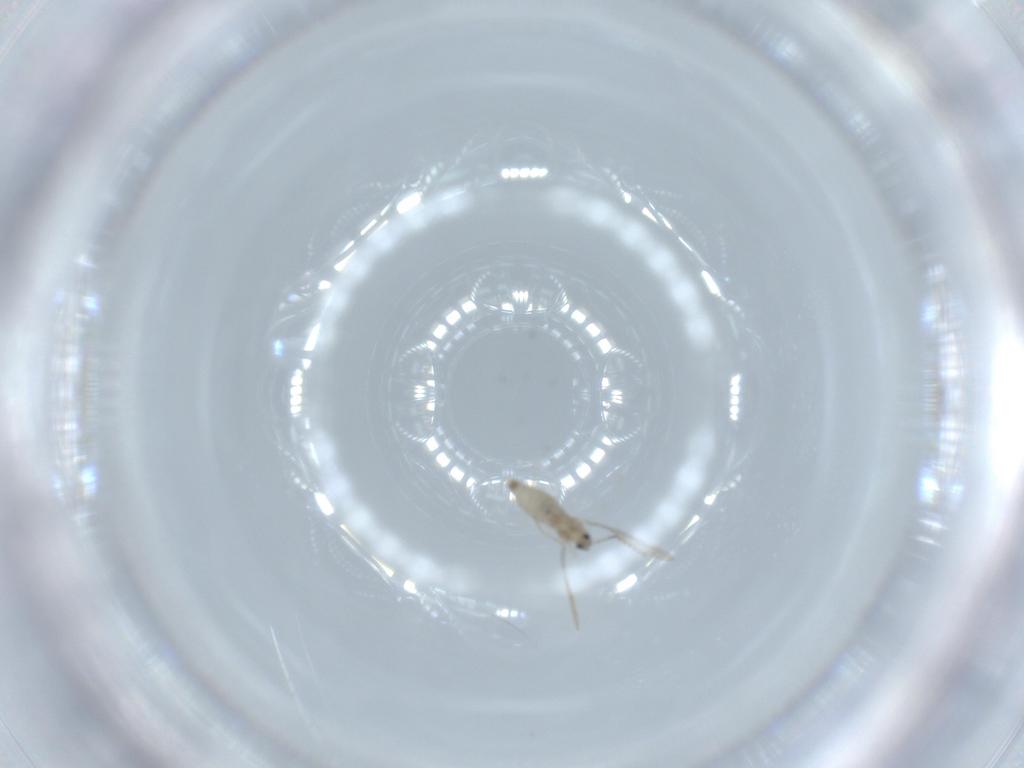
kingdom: Animalia
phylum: Arthropoda
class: Insecta
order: Diptera
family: Cecidomyiidae
